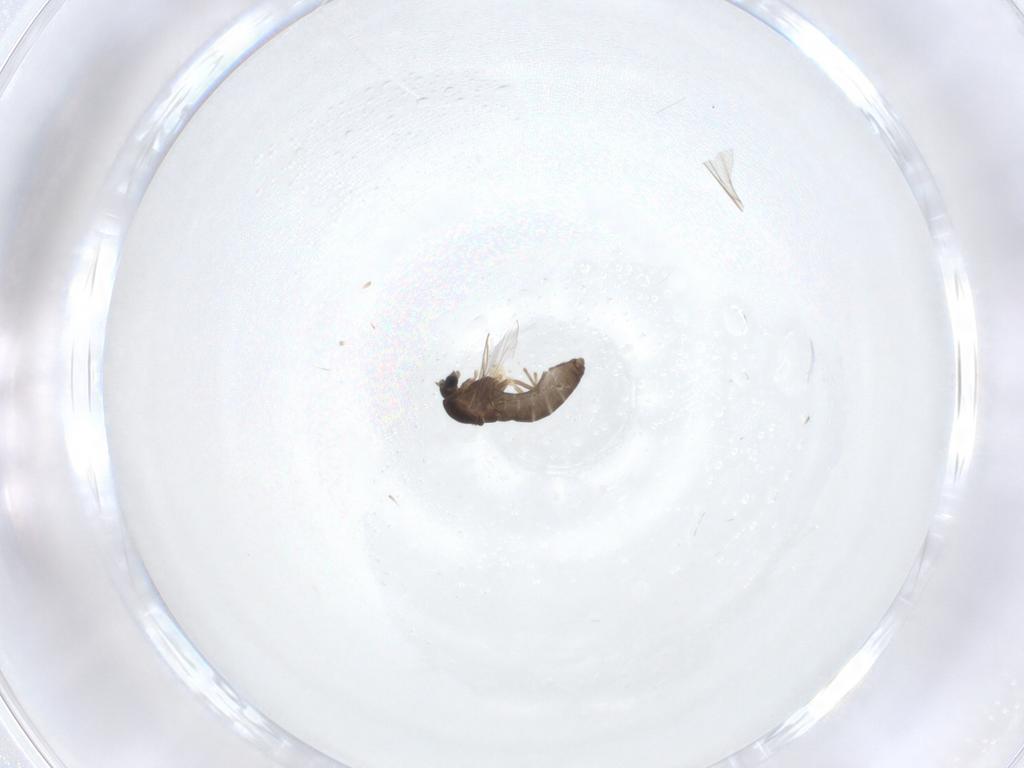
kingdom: Animalia
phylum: Arthropoda
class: Insecta
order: Diptera
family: Chironomidae
